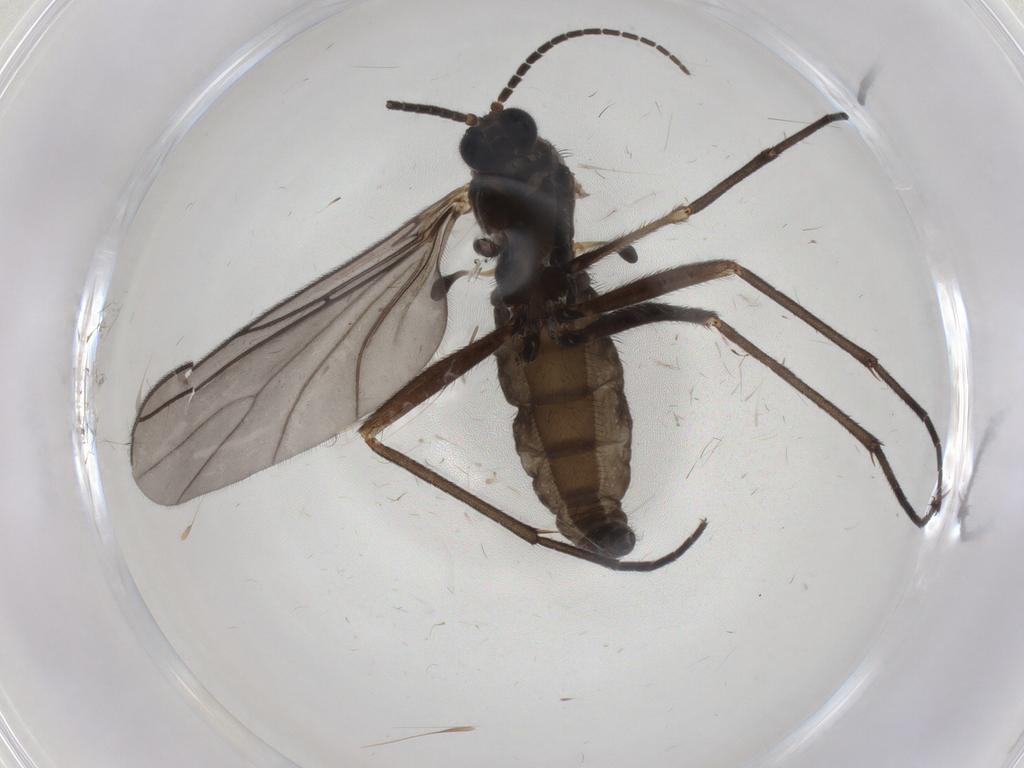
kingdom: Animalia
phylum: Arthropoda
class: Insecta
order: Diptera
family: Sciaridae
